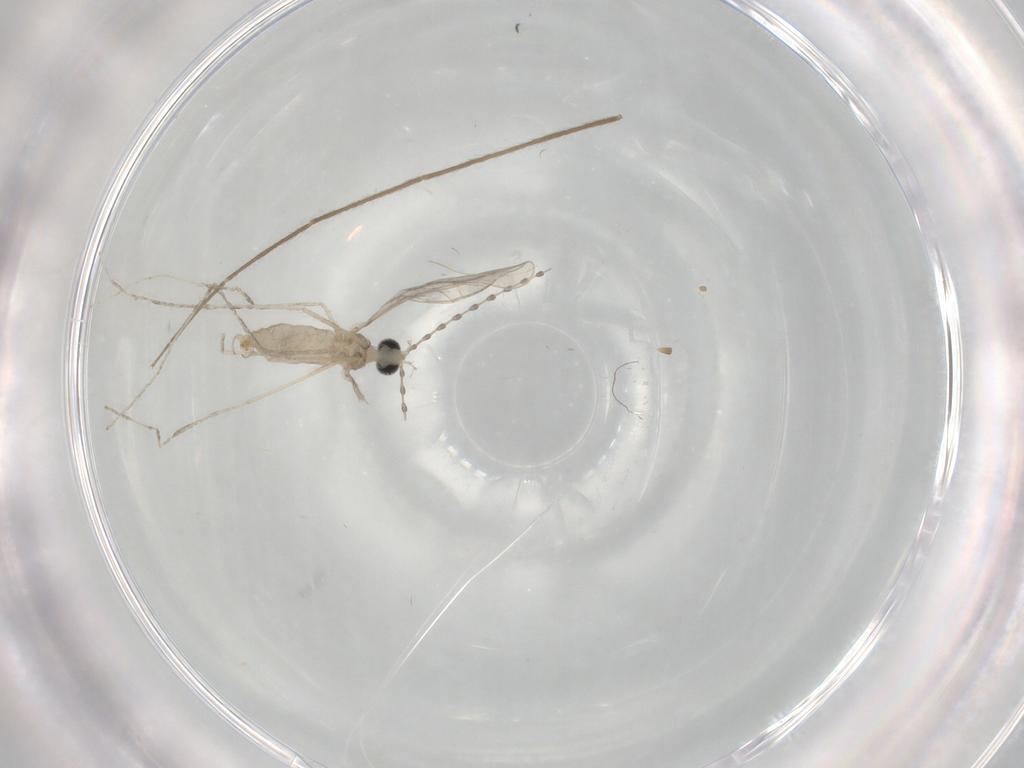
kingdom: Animalia
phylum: Arthropoda
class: Insecta
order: Diptera
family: Cecidomyiidae
